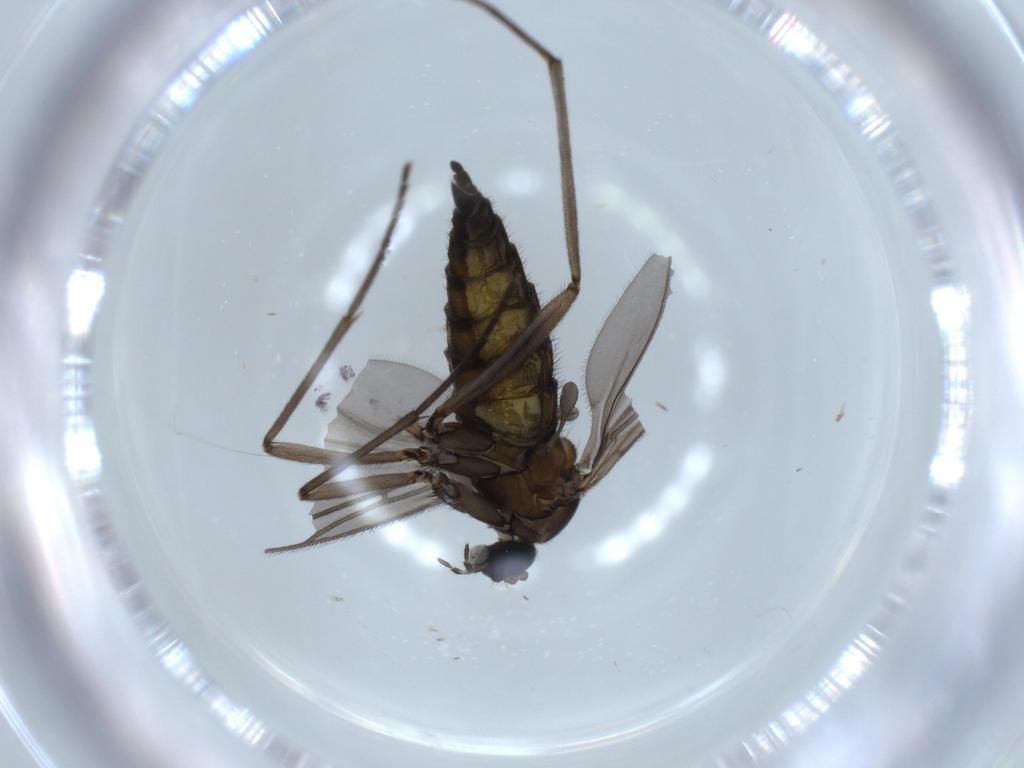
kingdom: Animalia
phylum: Arthropoda
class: Insecta
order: Diptera
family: Sciaridae
